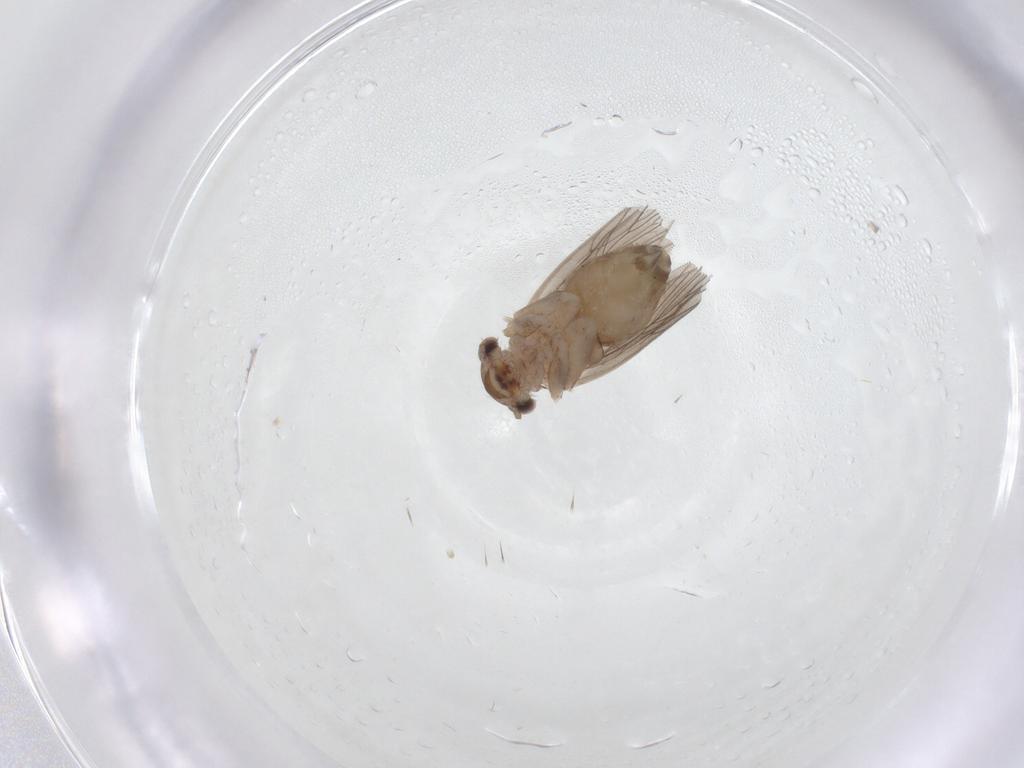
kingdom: Animalia
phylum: Arthropoda
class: Insecta
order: Psocodea
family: Lepidopsocidae
